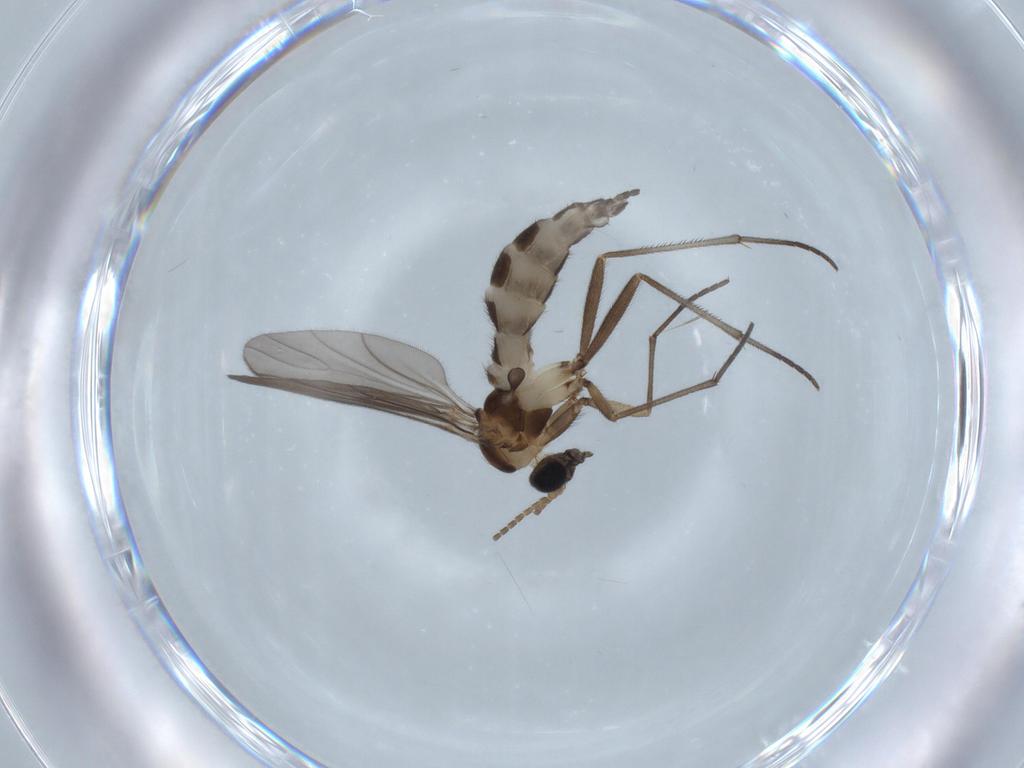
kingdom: Animalia
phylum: Arthropoda
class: Insecta
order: Diptera
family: Sciaridae
